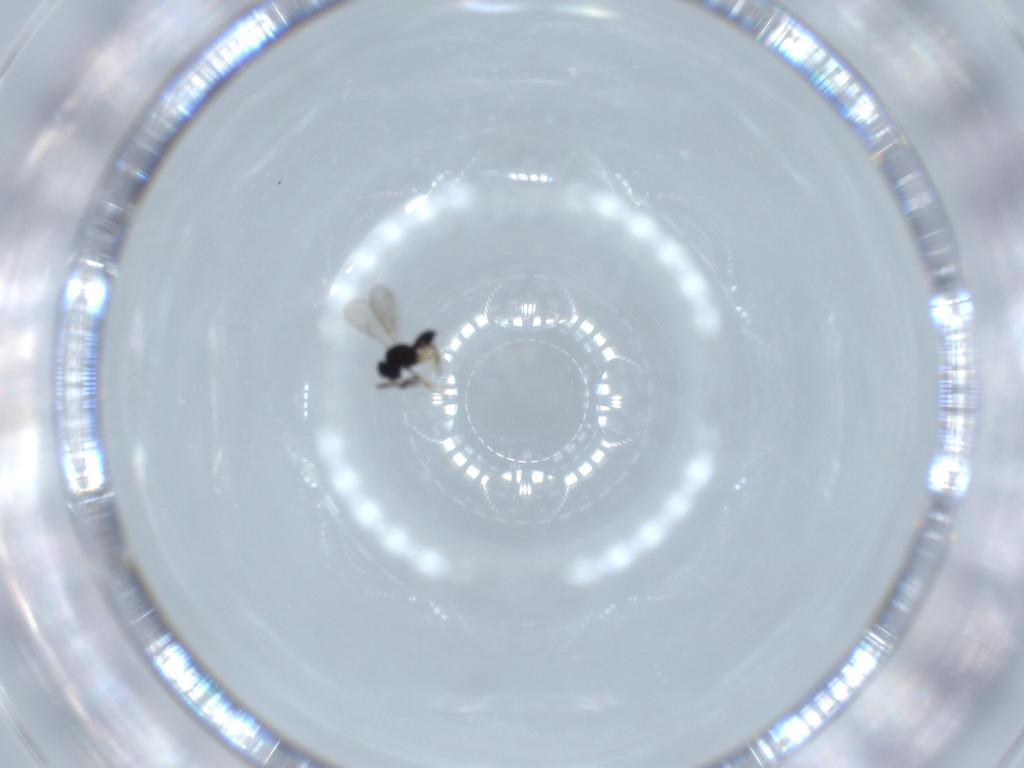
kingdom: Animalia
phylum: Arthropoda
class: Insecta
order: Hymenoptera
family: Scelionidae
